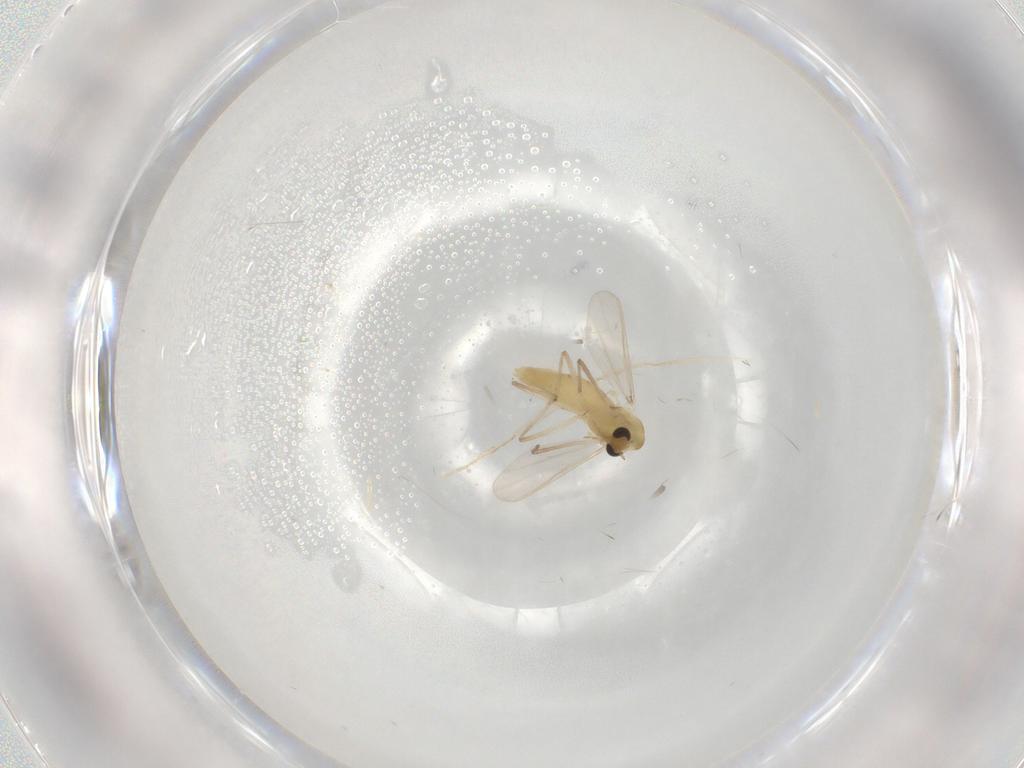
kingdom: Animalia
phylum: Arthropoda
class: Insecta
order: Diptera
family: Chironomidae
